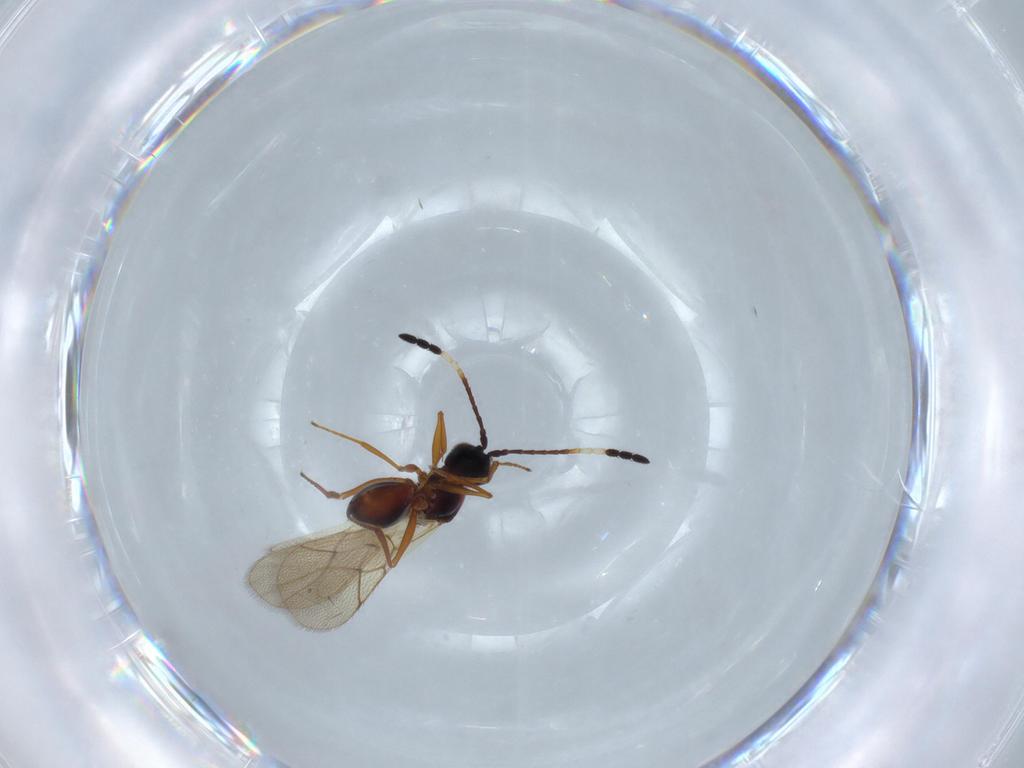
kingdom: Animalia
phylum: Arthropoda
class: Insecta
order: Hymenoptera
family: Figitidae
